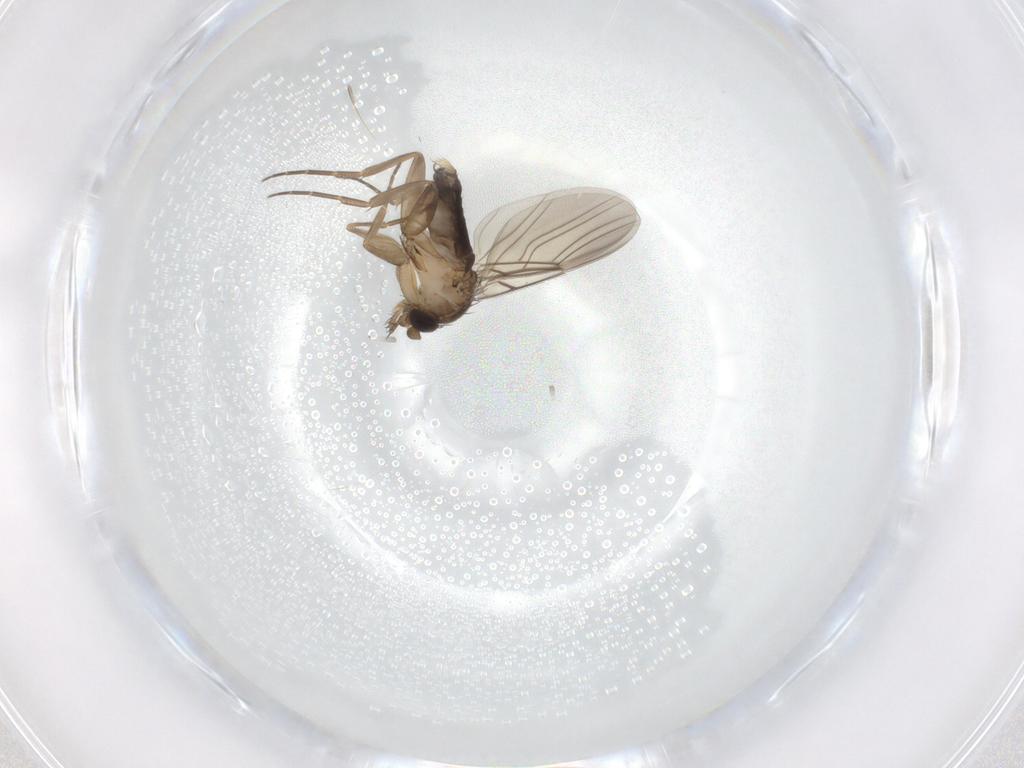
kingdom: Animalia
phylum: Arthropoda
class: Insecta
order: Diptera
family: Phoridae
